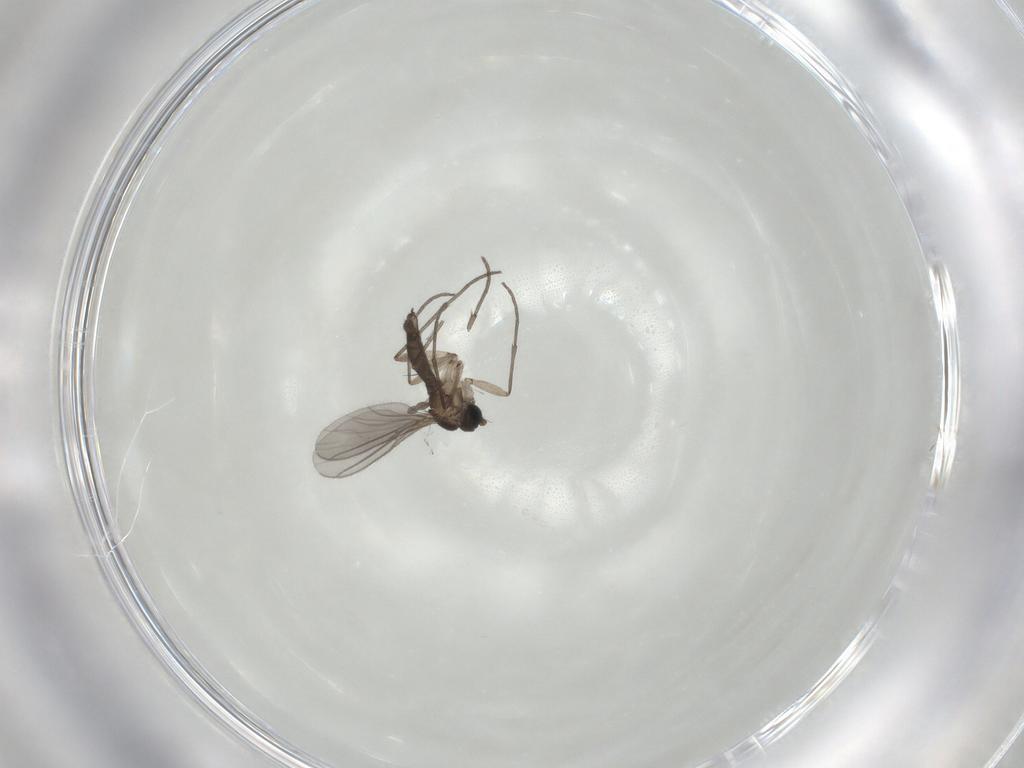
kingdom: Animalia
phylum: Arthropoda
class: Insecta
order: Diptera
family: Sciaridae
